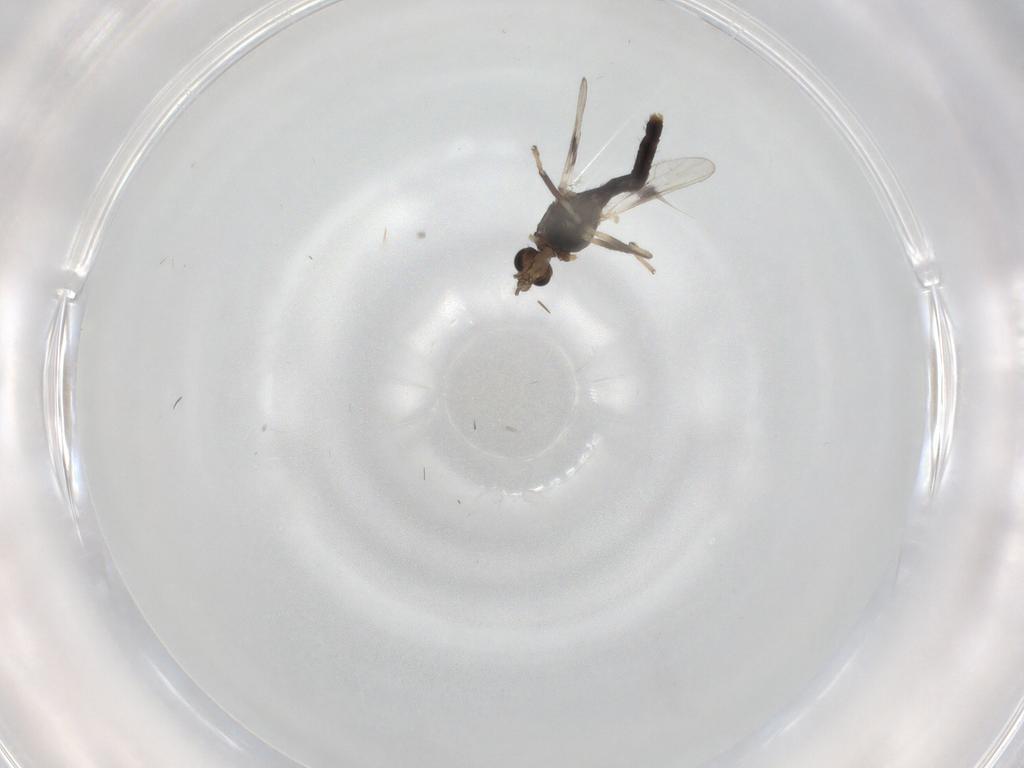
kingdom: Animalia
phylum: Arthropoda
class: Insecta
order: Diptera
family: Chironomidae
